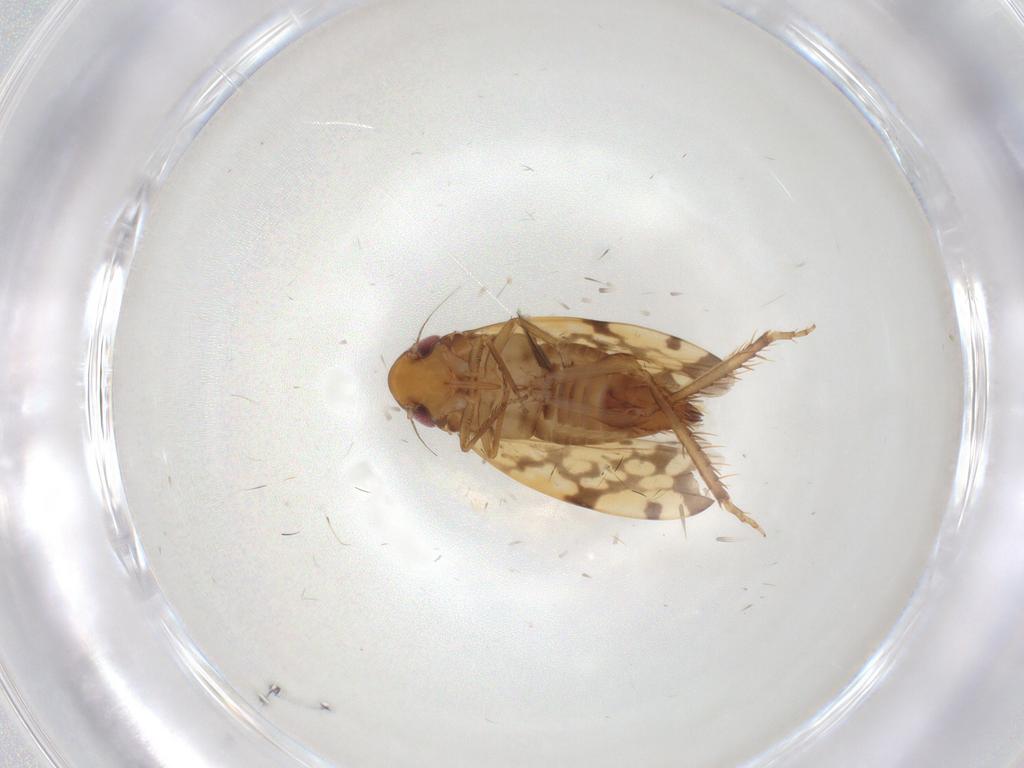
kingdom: Animalia
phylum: Arthropoda
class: Insecta
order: Hemiptera
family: Cicadellidae
